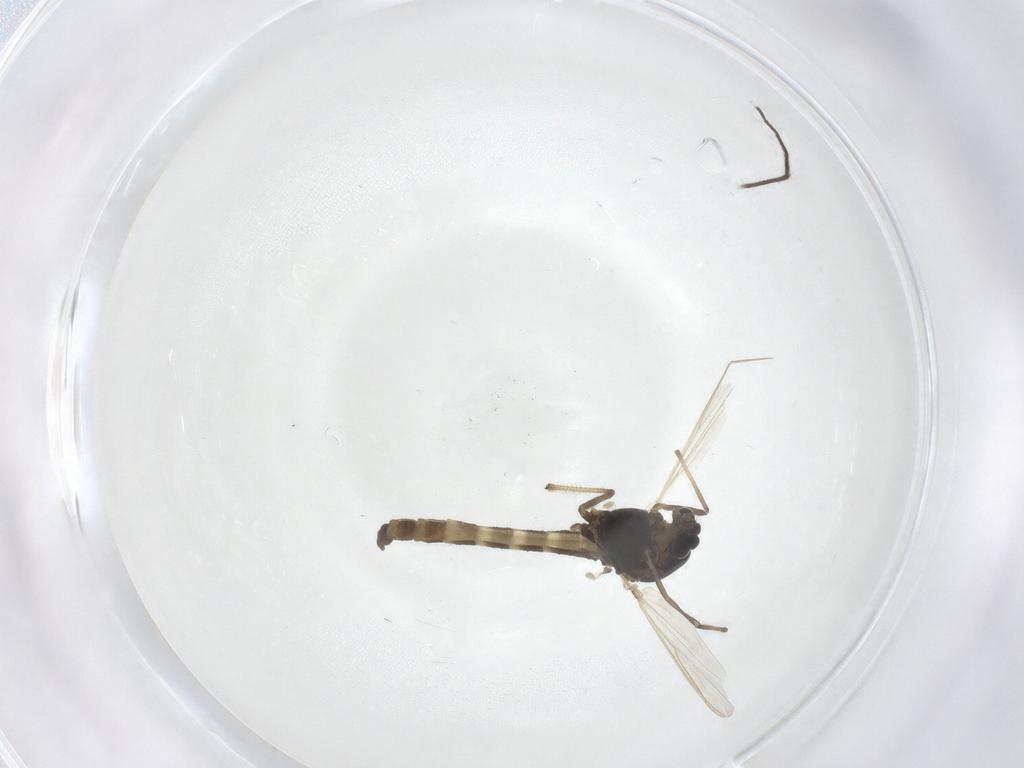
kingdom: Animalia
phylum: Arthropoda
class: Insecta
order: Diptera
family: Chironomidae
